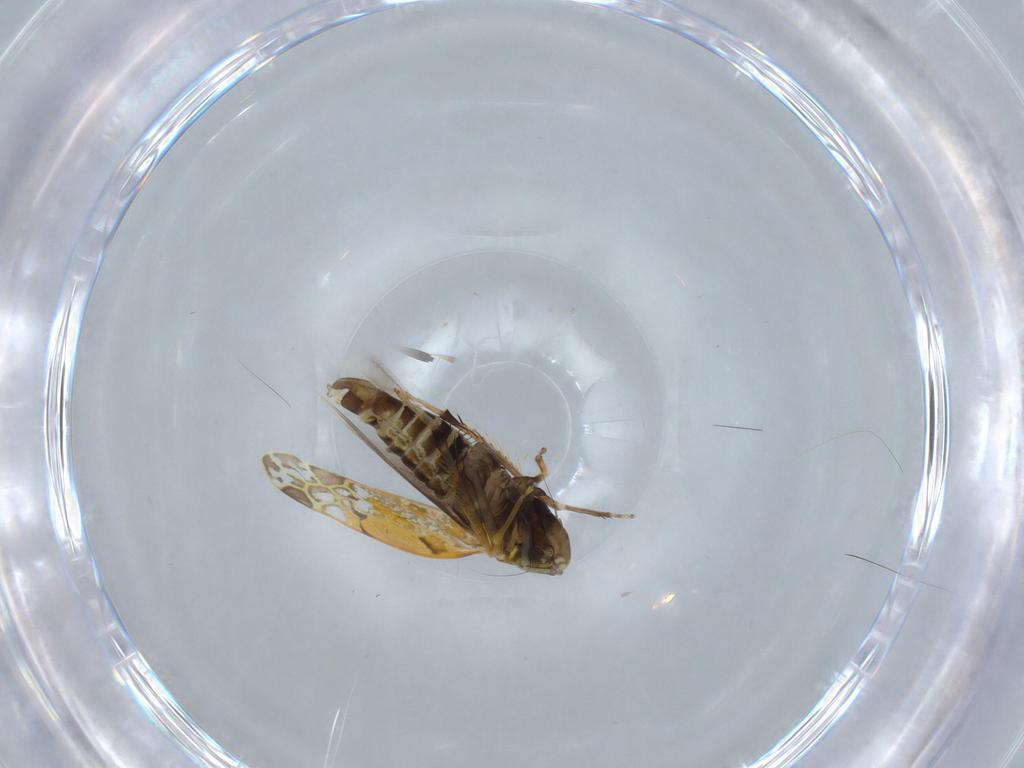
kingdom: Animalia
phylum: Arthropoda
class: Insecta
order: Hemiptera
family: Cicadellidae
